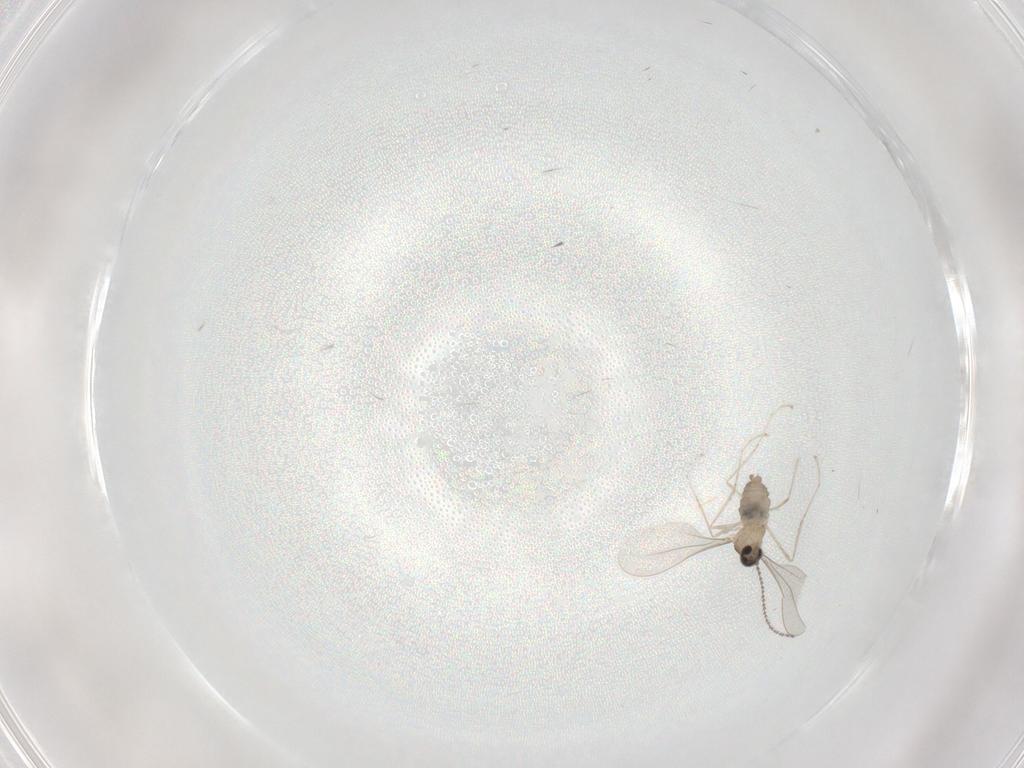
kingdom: Animalia
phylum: Arthropoda
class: Insecta
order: Diptera
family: Cecidomyiidae
